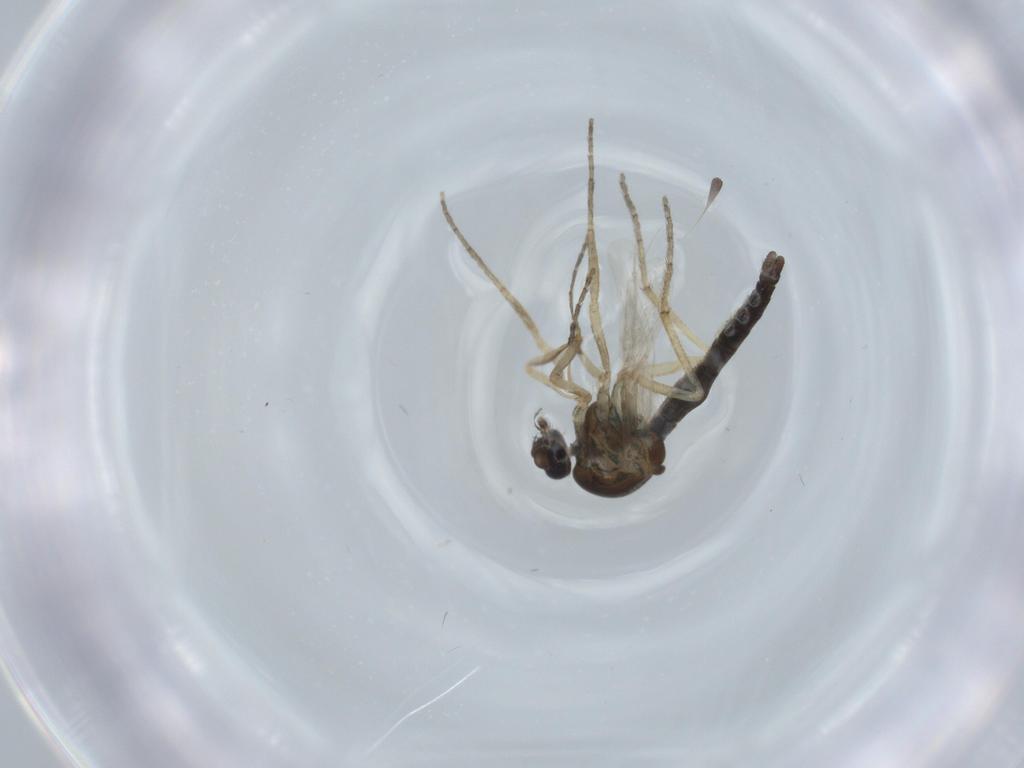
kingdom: Animalia
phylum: Arthropoda
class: Insecta
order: Diptera
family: Ceratopogonidae
